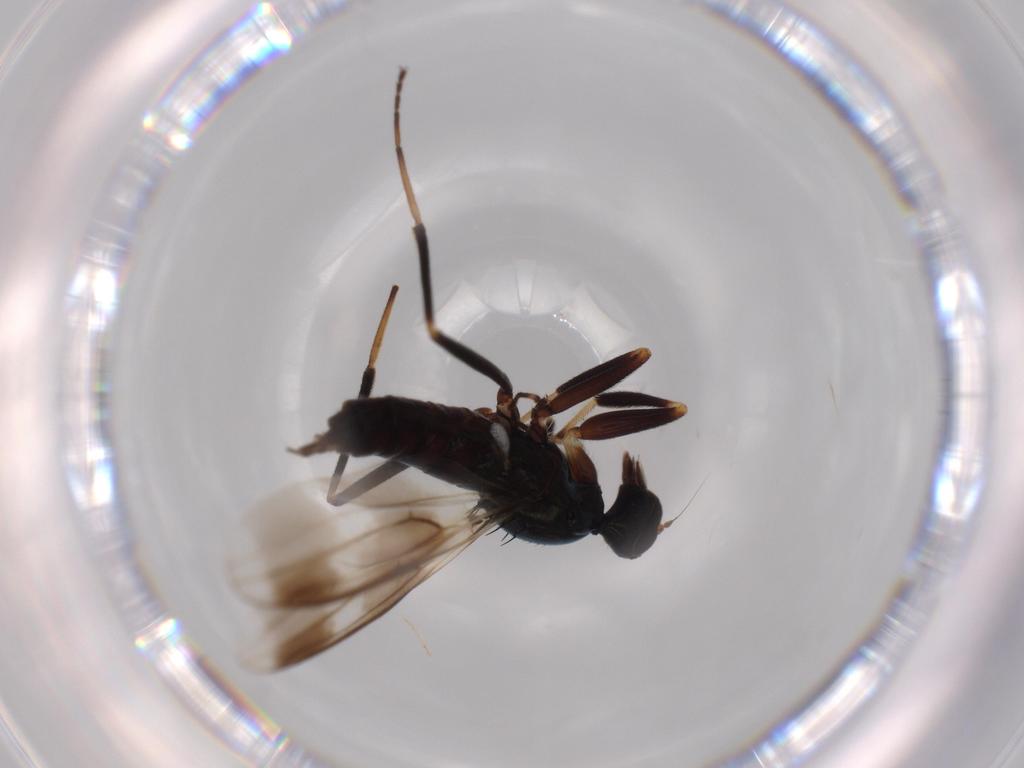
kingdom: Animalia
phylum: Arthropoda
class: Insecta
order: Diptera
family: Hybotidae
